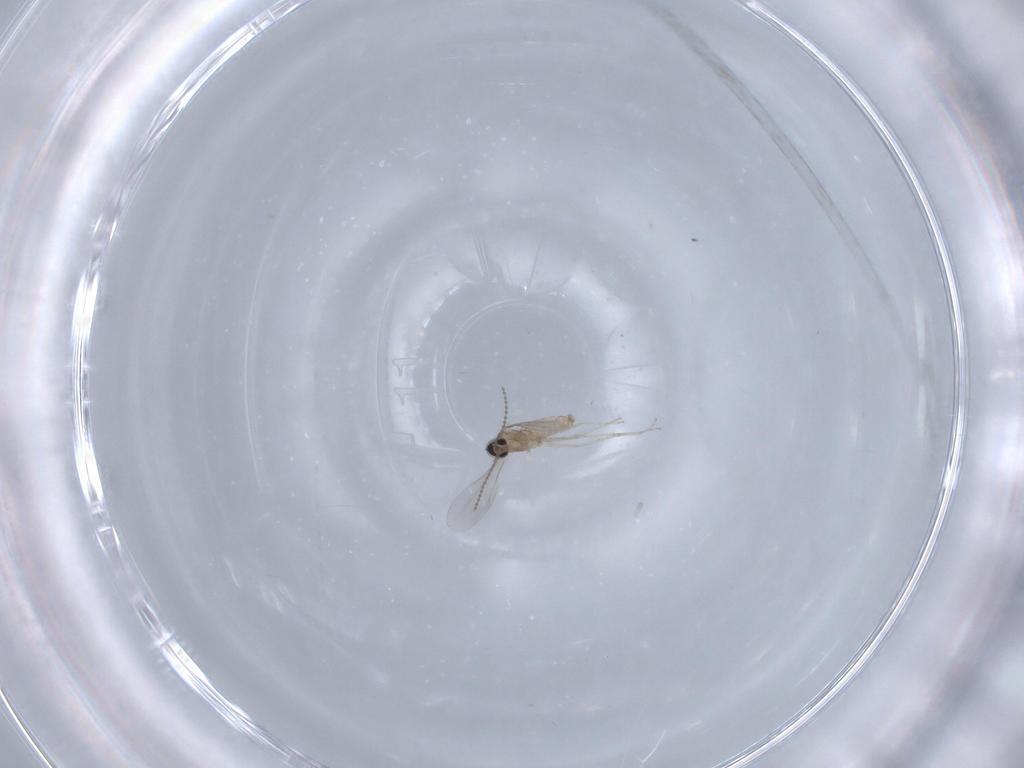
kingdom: Animalia
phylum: Arthropoda
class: Insecta
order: Diptera
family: Cecidomyiidae
